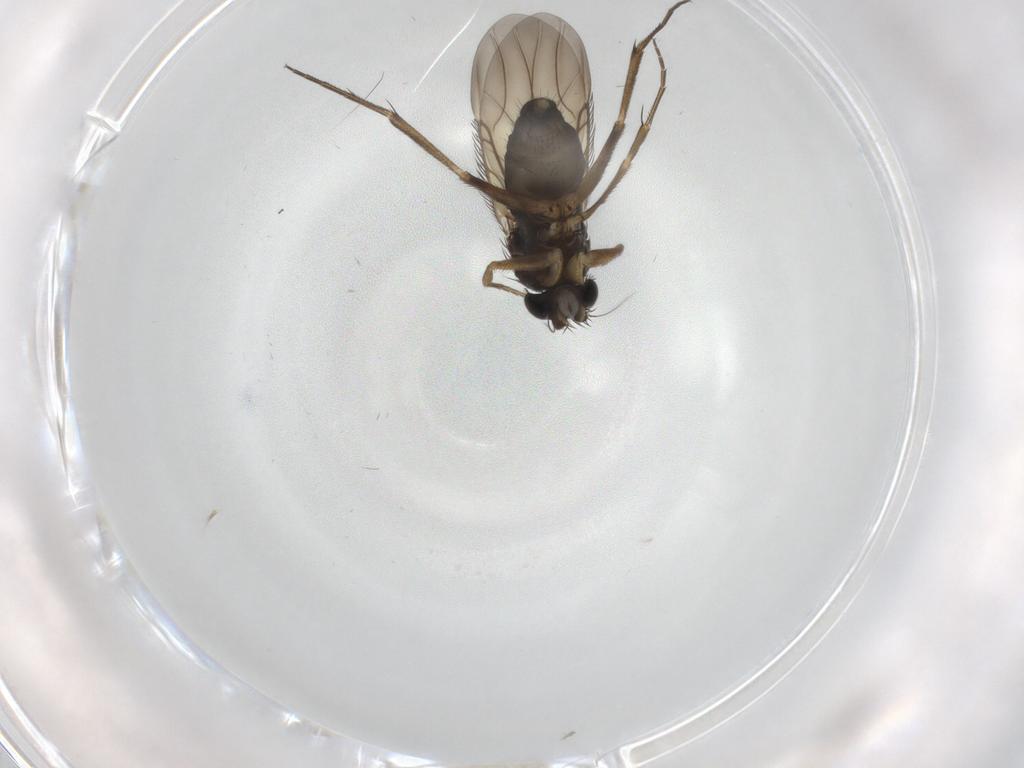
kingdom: Animalia
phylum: Arthropoda
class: Insecta
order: Diptera
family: Phoridae
